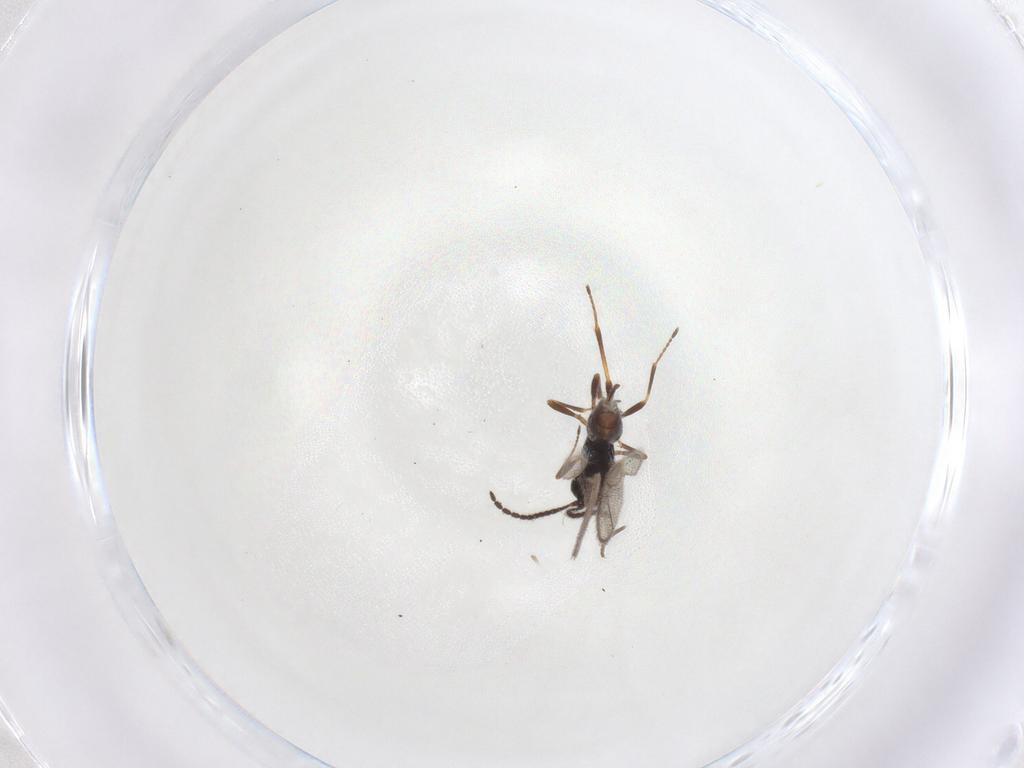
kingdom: Animalia
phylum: Arthropoda
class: Insecta
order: Hymenoptera
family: Braconidae
